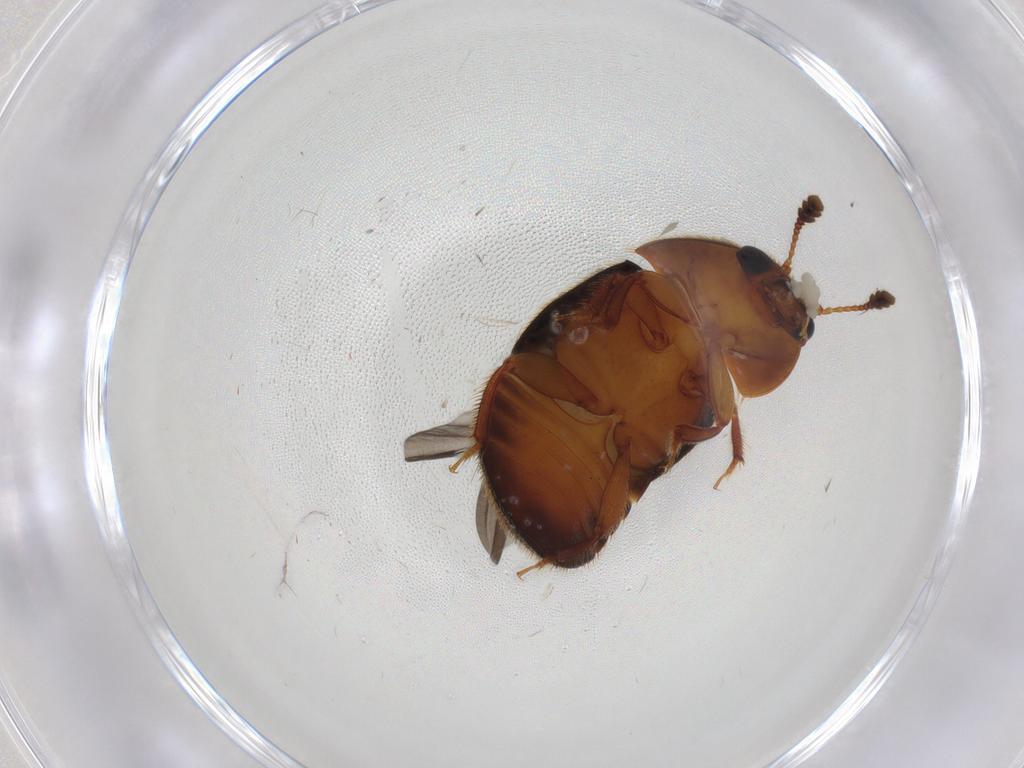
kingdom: Animalia
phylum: Arthropoda
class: Insecta
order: Coleoptera
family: Nitidulidae
